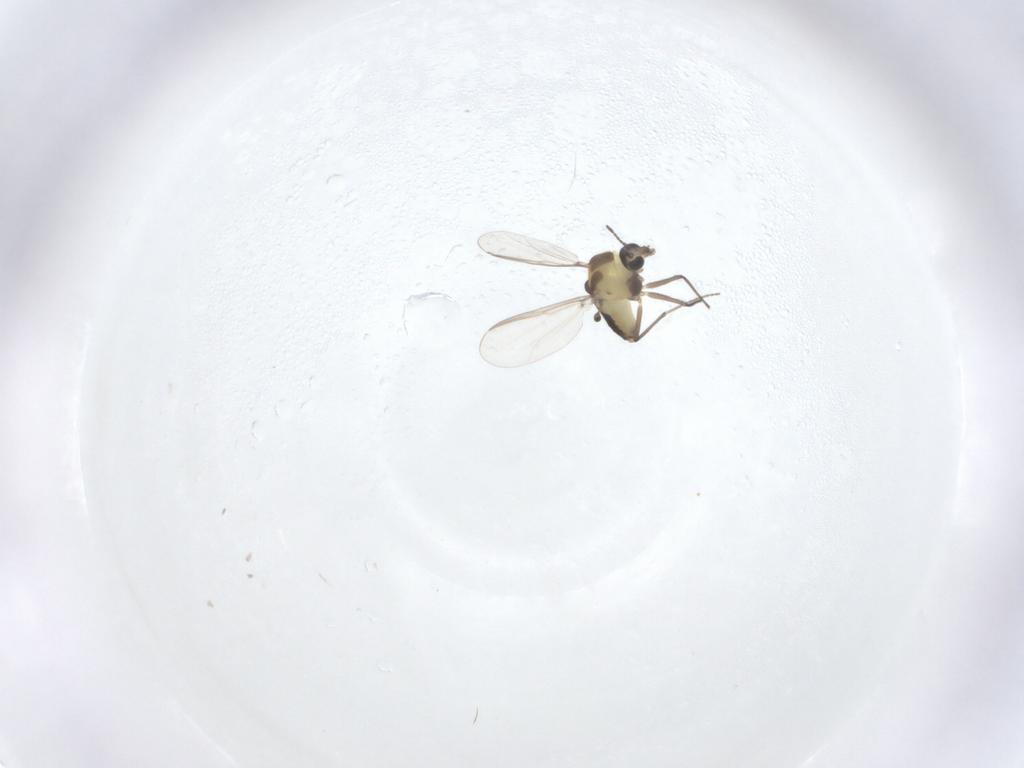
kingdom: Animalia
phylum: Arthropoda
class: Insecta
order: Diptera
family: Chironomidae
